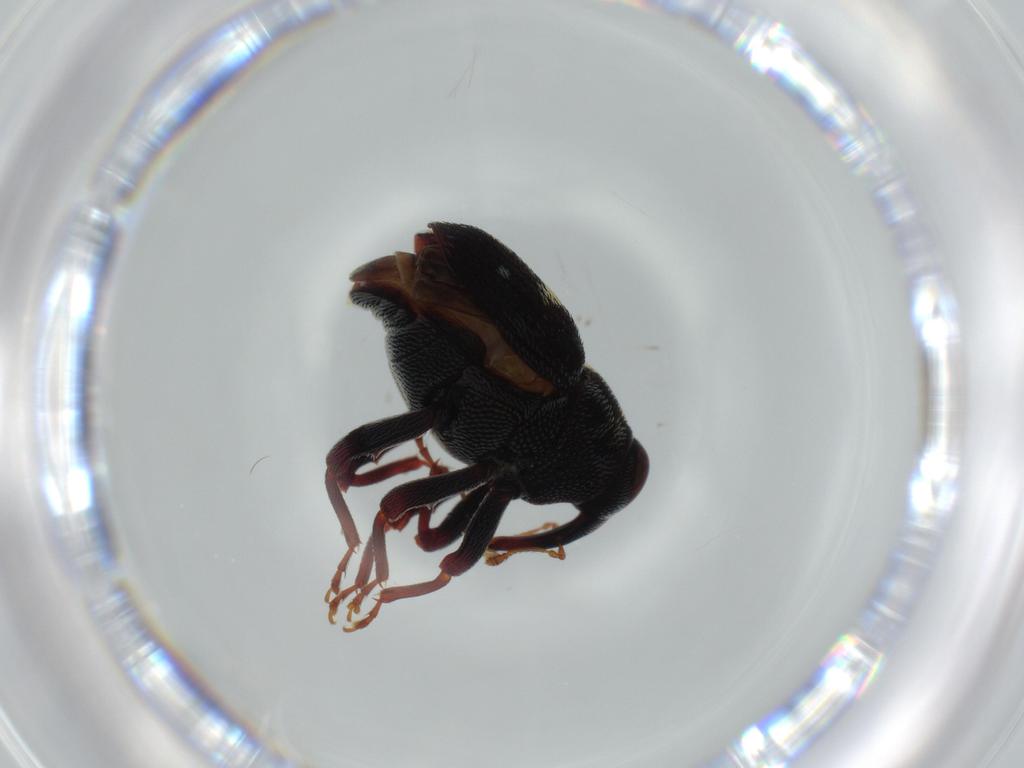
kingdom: Animalia
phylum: Arthropoda
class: Insecta
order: Coleoptera
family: Curculionidae
